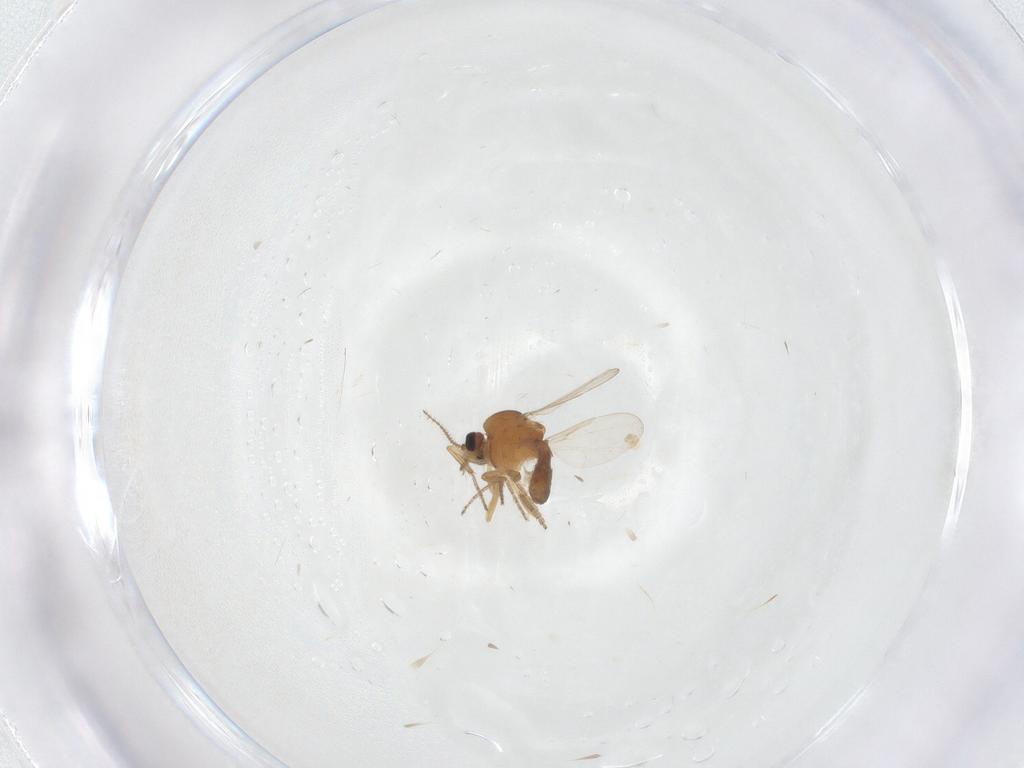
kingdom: Animalia
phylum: Arthropoda
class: Insecta
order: Diptera
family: Ceratopogonidae
